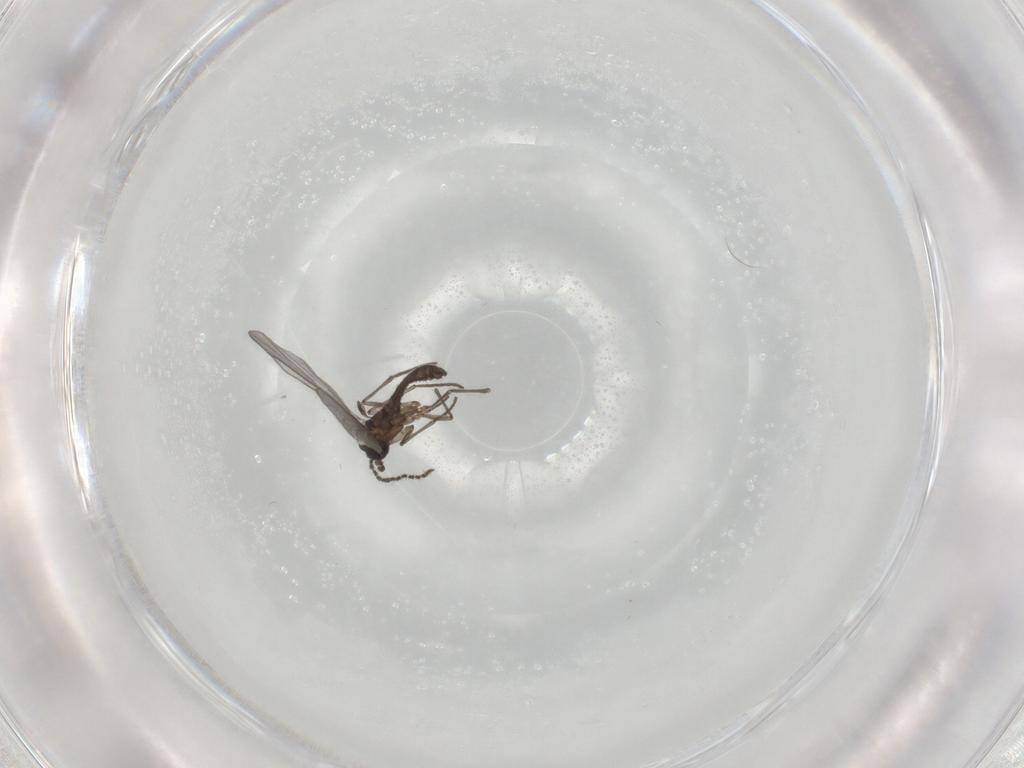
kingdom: Animalia
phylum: Arthropoda
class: Insecta
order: Diptera
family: Sciaridae
